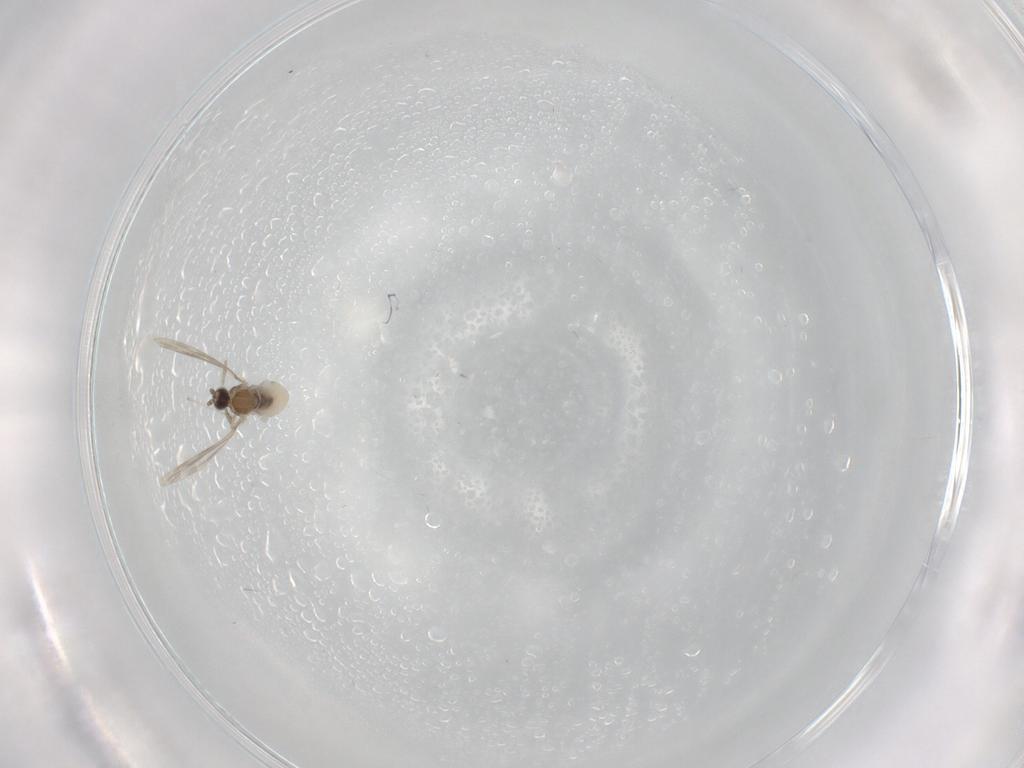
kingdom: Animalia
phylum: Arthropoda
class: Insecta
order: Diptera
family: Cecidomyiidae
